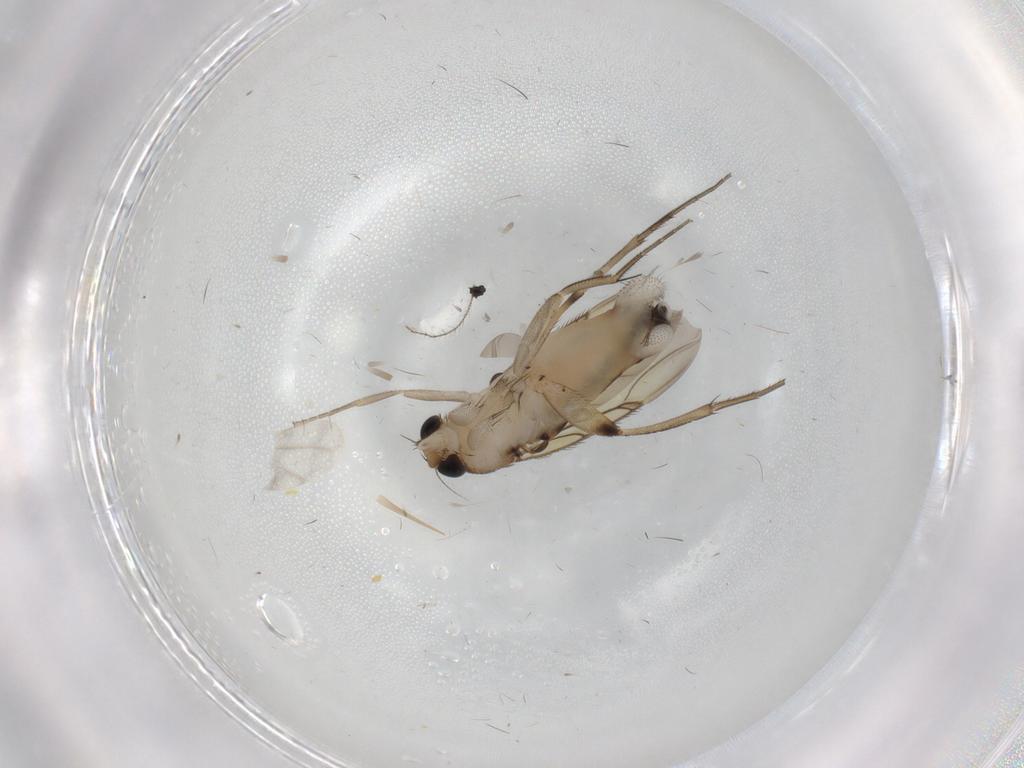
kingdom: Animalia
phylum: Arthropoda
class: Insecta
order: Diptera
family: Phoridae
